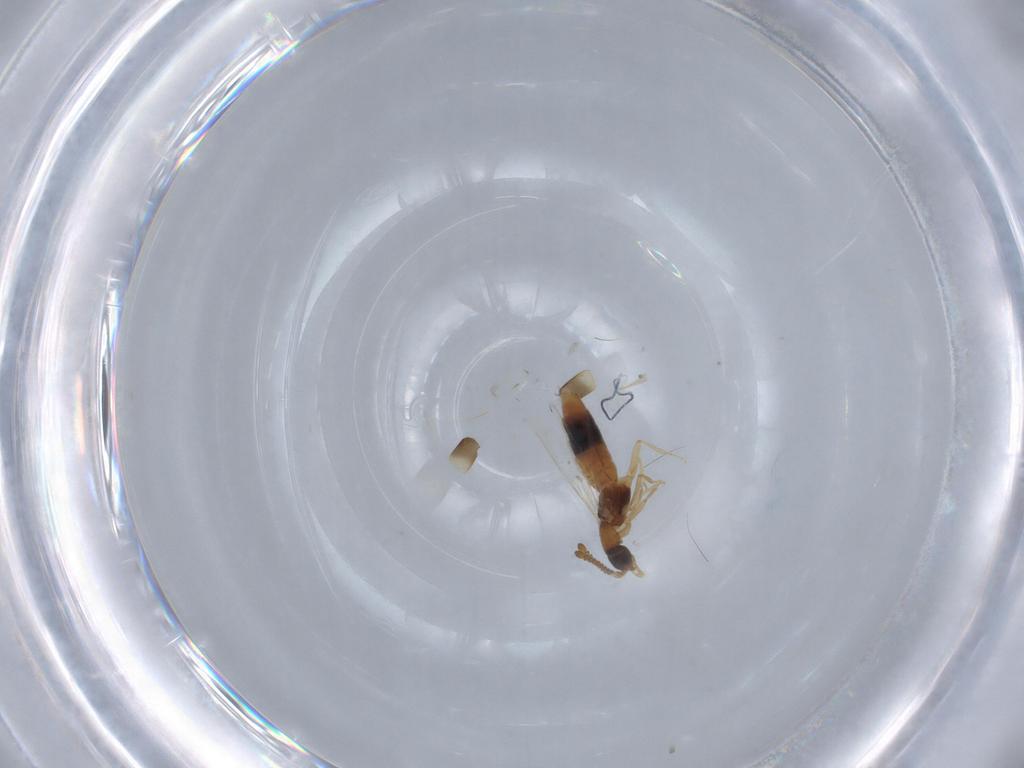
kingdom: Animalia
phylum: Arthropoda
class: Insecta
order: Coleoptera
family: Staphylinidae
